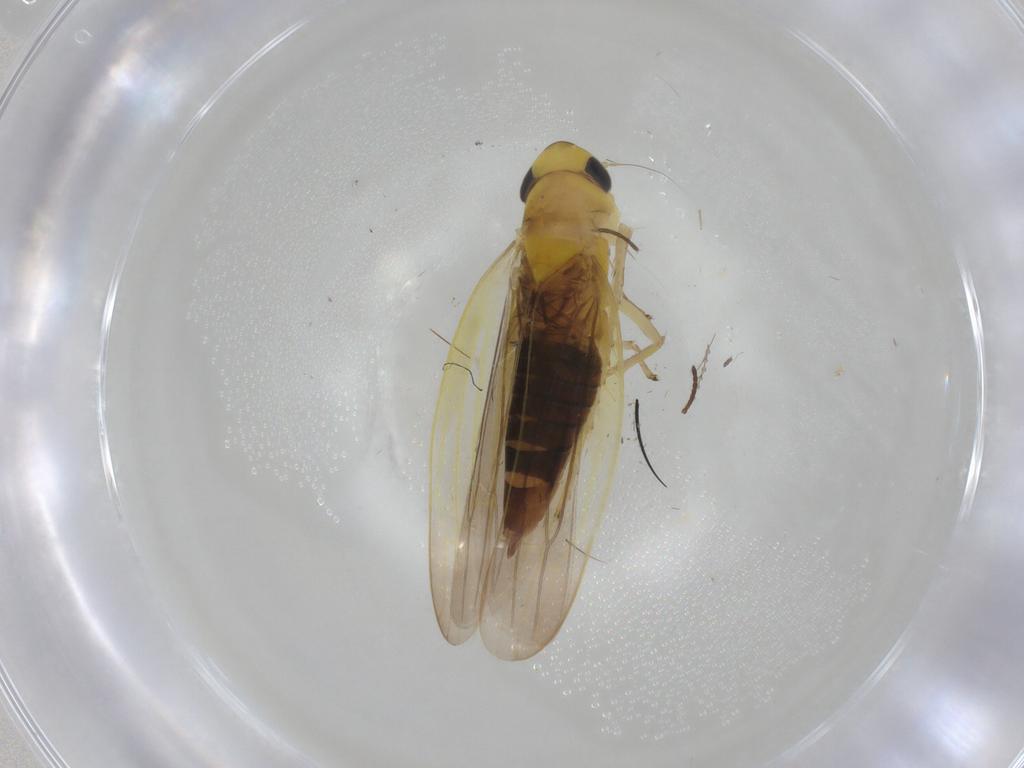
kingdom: Animalia
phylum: Arthropoda
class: Insecta
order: Hemiptera
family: Cicadellidae
